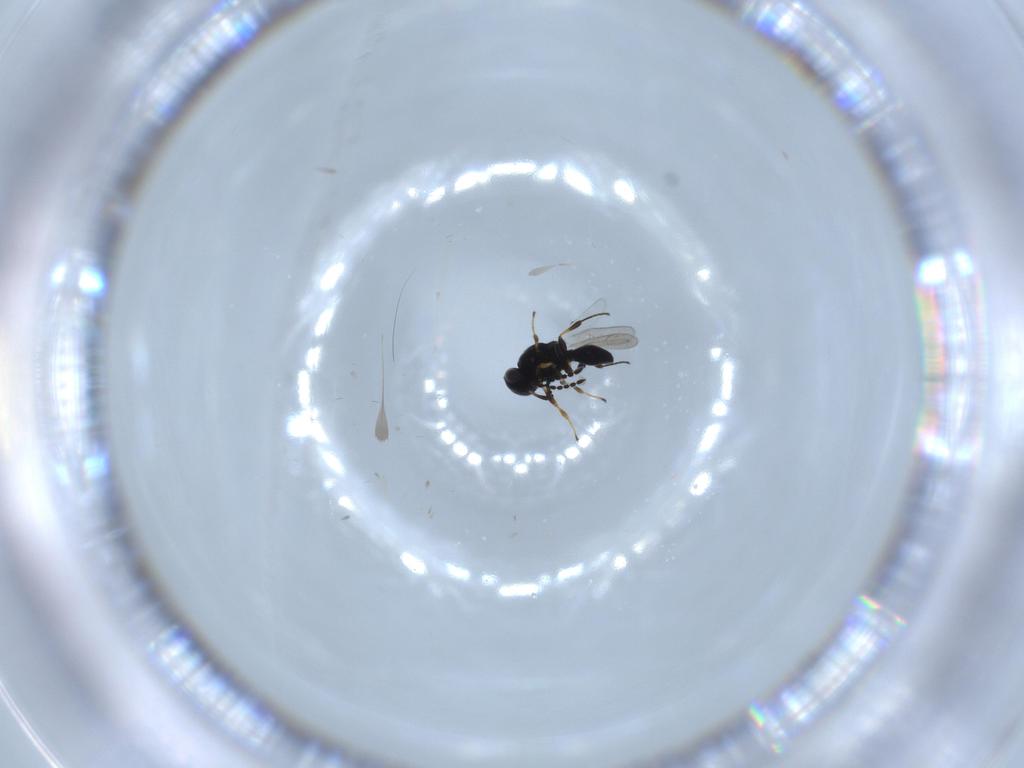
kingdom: Animalia
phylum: Arthropoda
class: Insecta
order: Hymenoptera
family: Platygastridae
